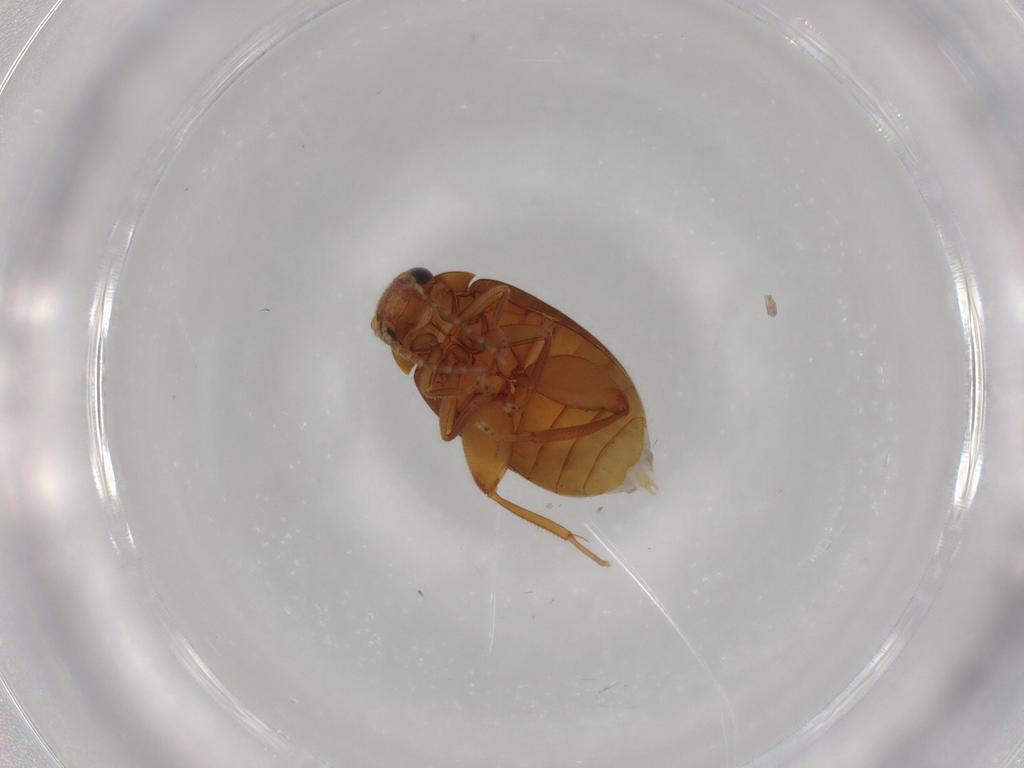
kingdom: Animalia
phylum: Arthropoda
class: Insecta
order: Coleoptera
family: Scirtidae
